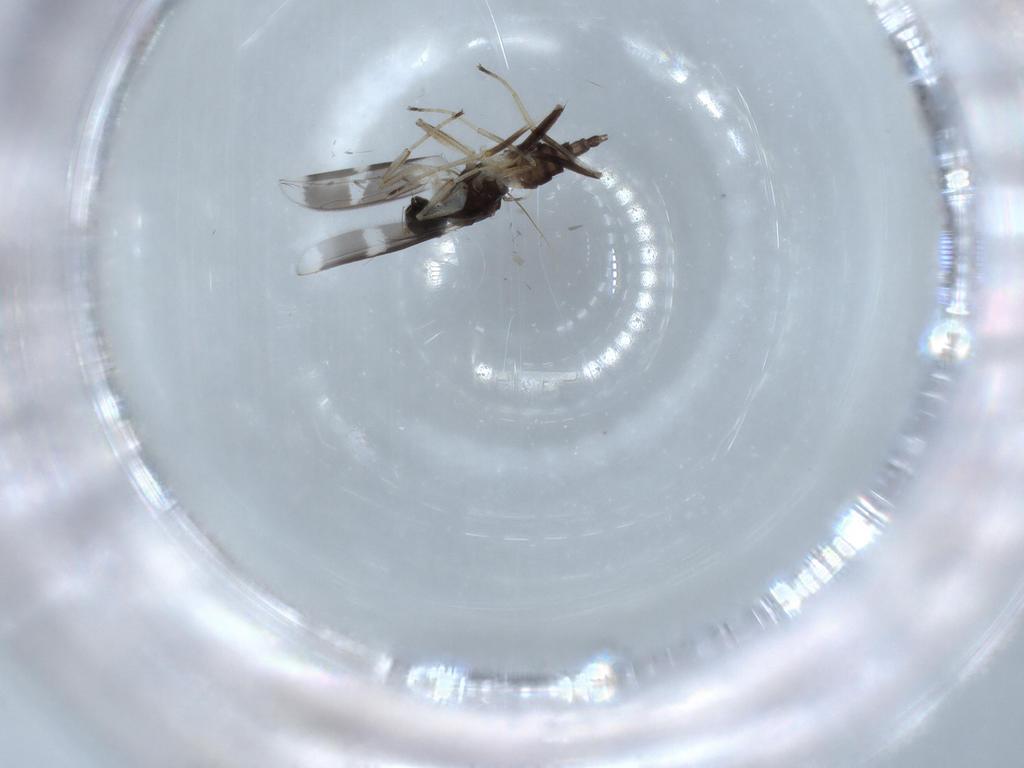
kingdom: Animalia
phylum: Arthropoda
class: Insecta
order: Diptera
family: Hybotidae
